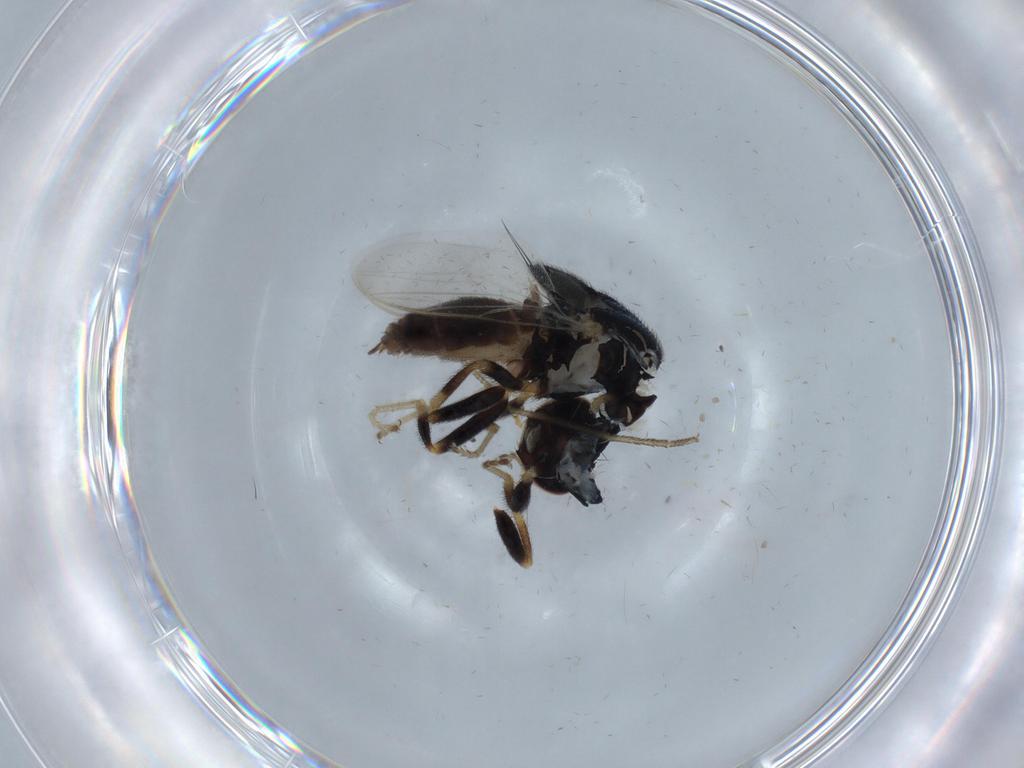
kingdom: Animalia
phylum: Arthropoda
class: Insecta
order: Diptera
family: Chloropidae
